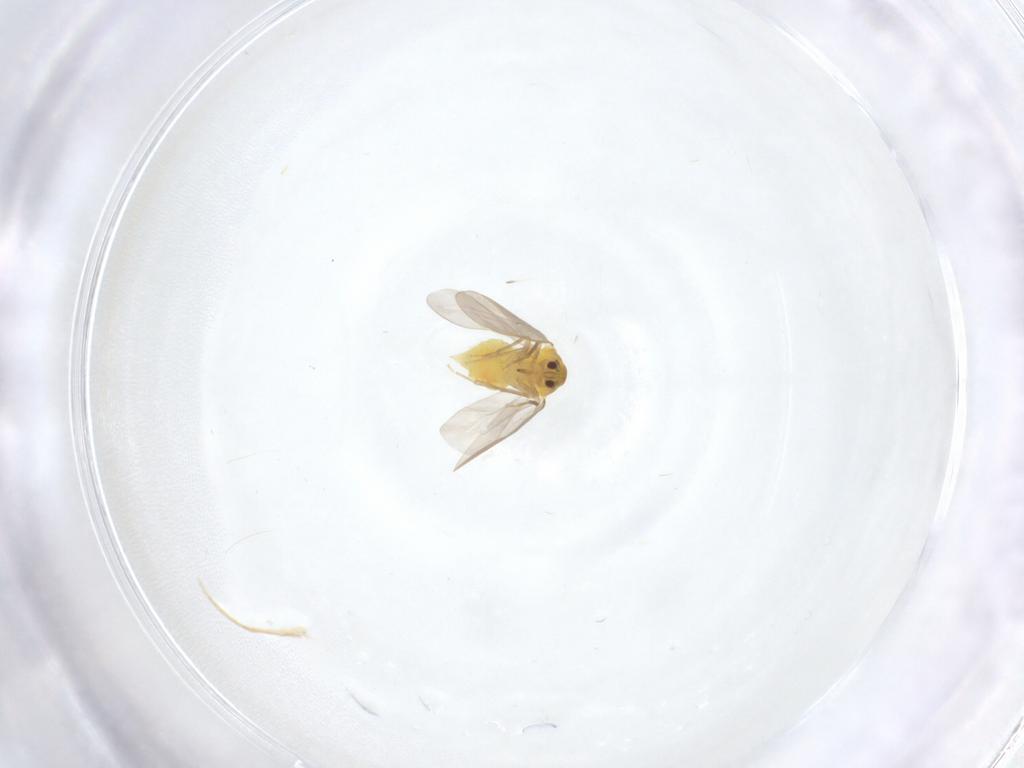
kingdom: Animalia
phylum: Arthropoda
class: Insecta
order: Hemiptera
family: Aleyrodidae
